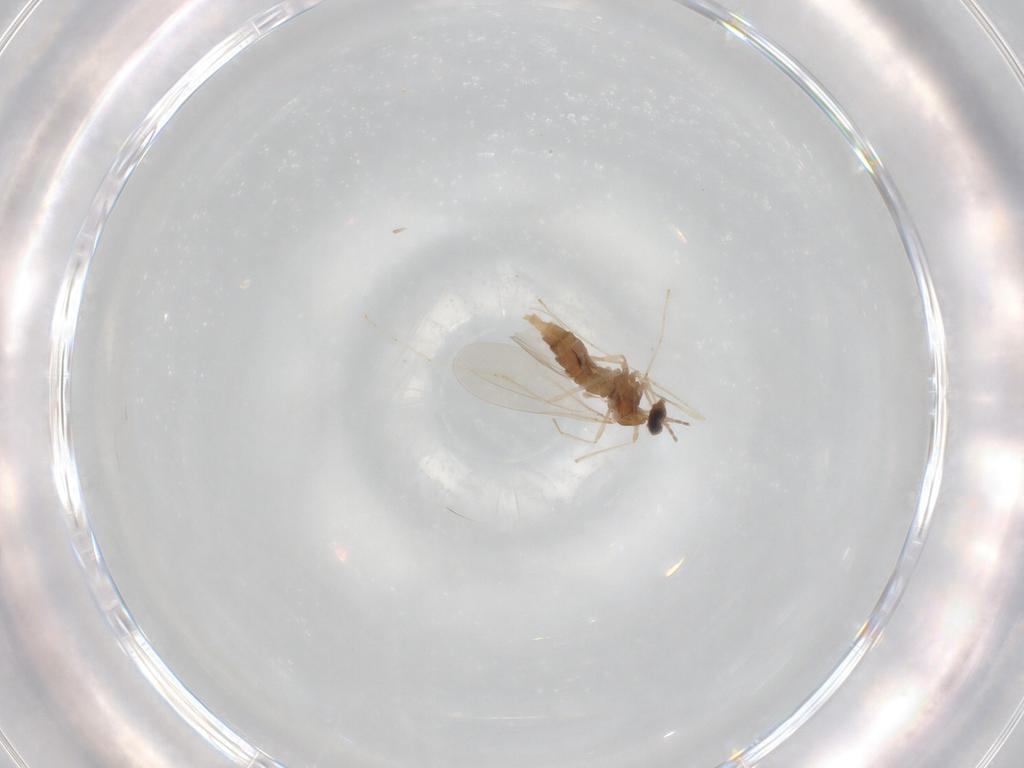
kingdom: Animalia
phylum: Arthropoda
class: Insecta
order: Diptera
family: Cecidomyiidae
